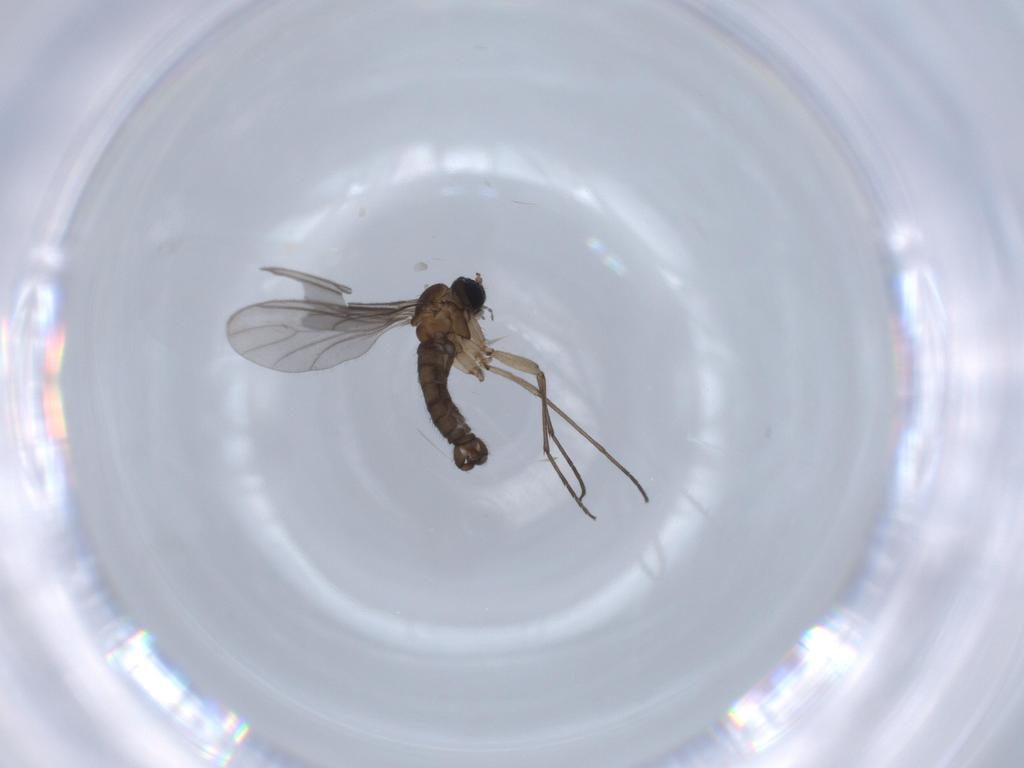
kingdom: Animalia
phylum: Arthropoda
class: Insecta
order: Diptera
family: Sciaridae
